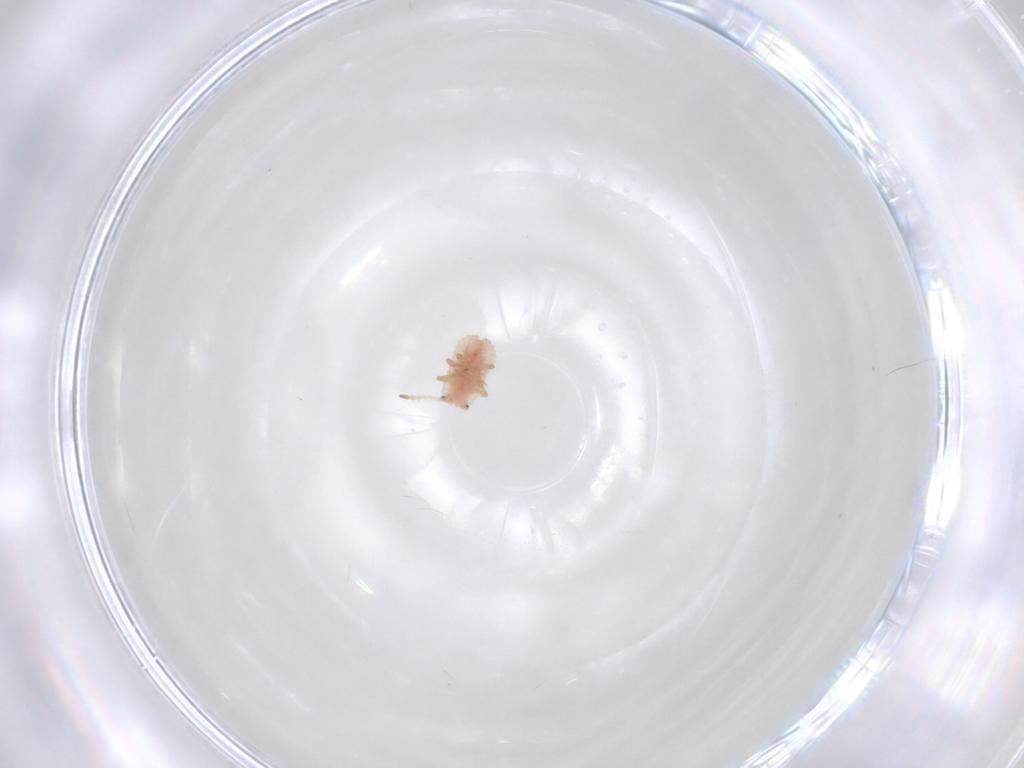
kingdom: Animalia
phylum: Arthropoda
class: Insecta
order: Hemiptera
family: Coccoidea_incertae_sedis
